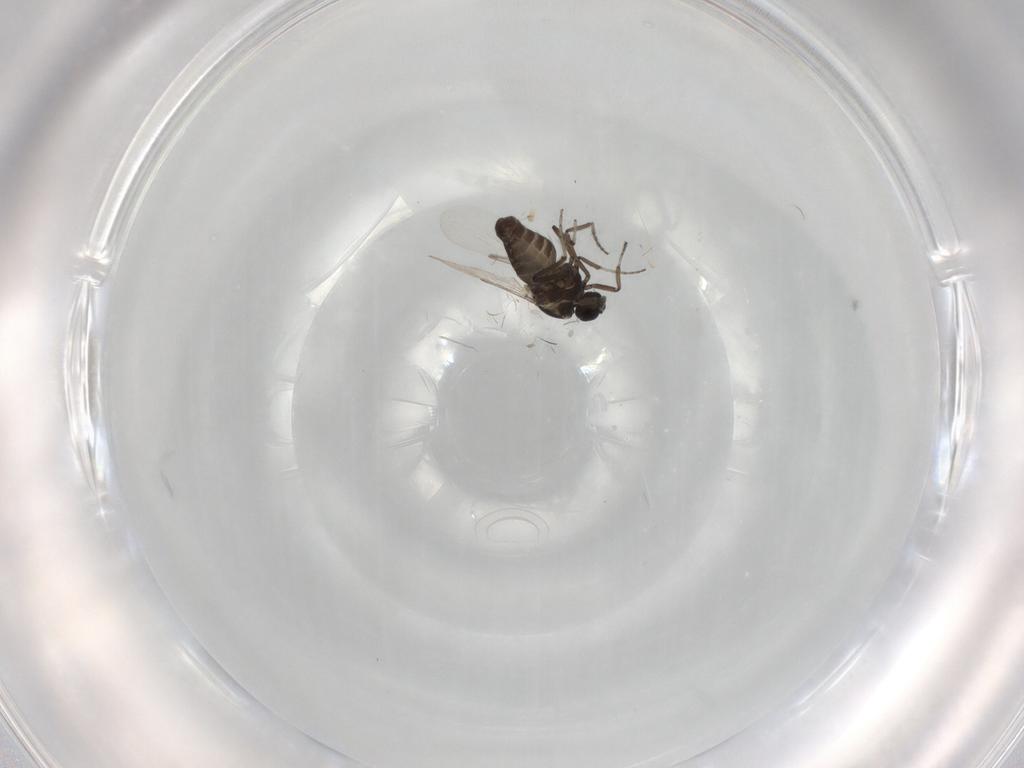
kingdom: Animalia
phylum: Arthropoda
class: Insecta
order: Diptera
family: Ceratopogonidae
